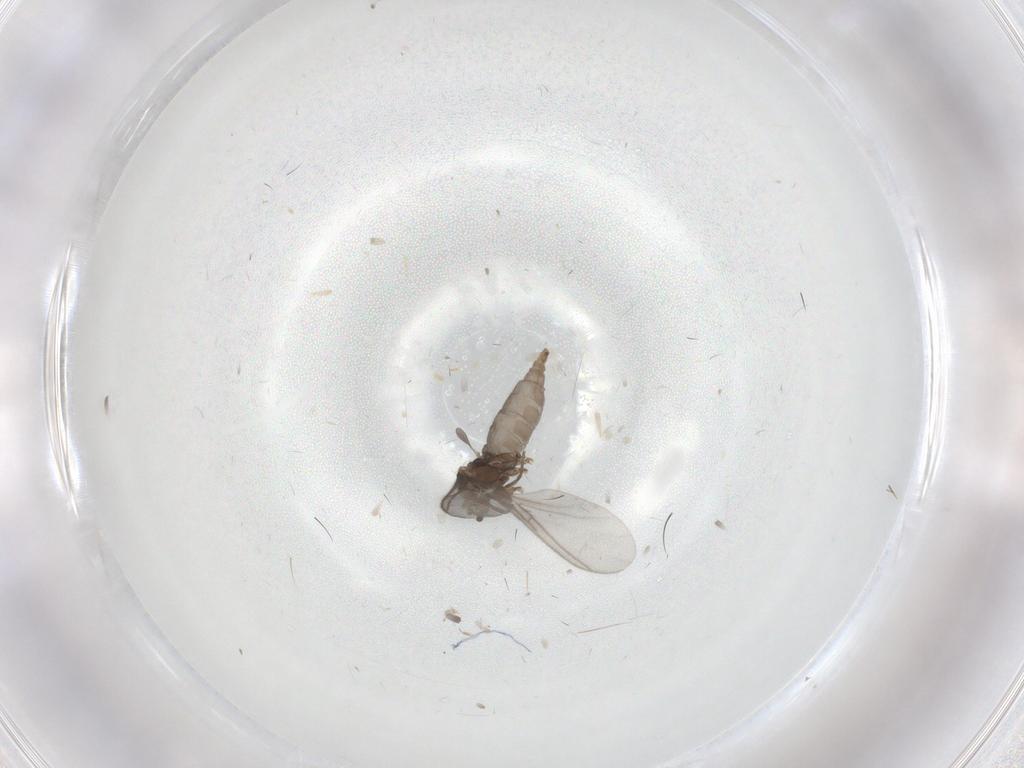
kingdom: Animalia
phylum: Arthropoda
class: Insecta
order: Diptera
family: Sciaridae
